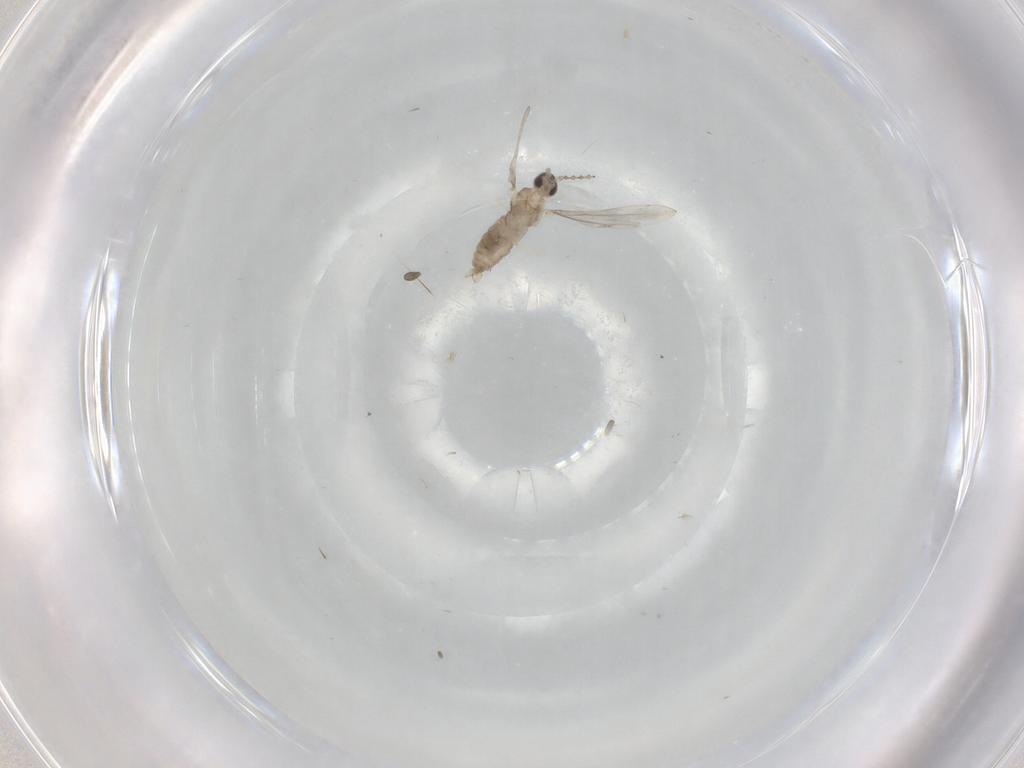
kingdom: Animalia
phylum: Arthropoda
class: Insecta
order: Diptera
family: Cecidomyiidae
